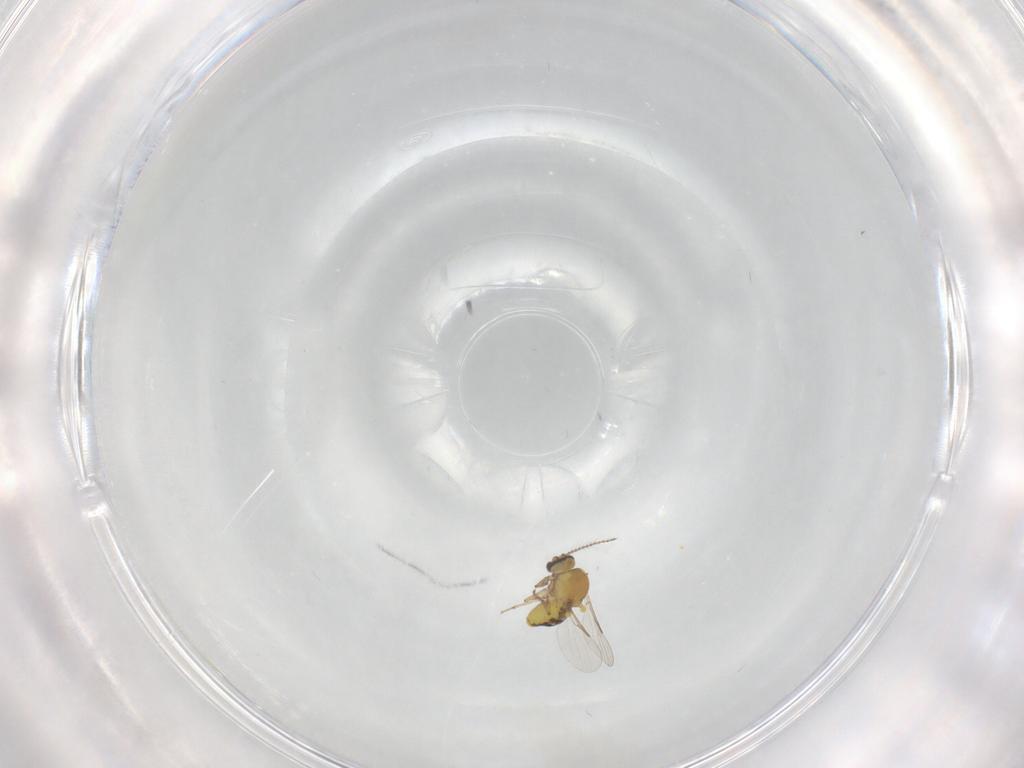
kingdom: Animalia
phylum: Arthropoda
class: Insecta
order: Diptera
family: Ceratopogonidae
